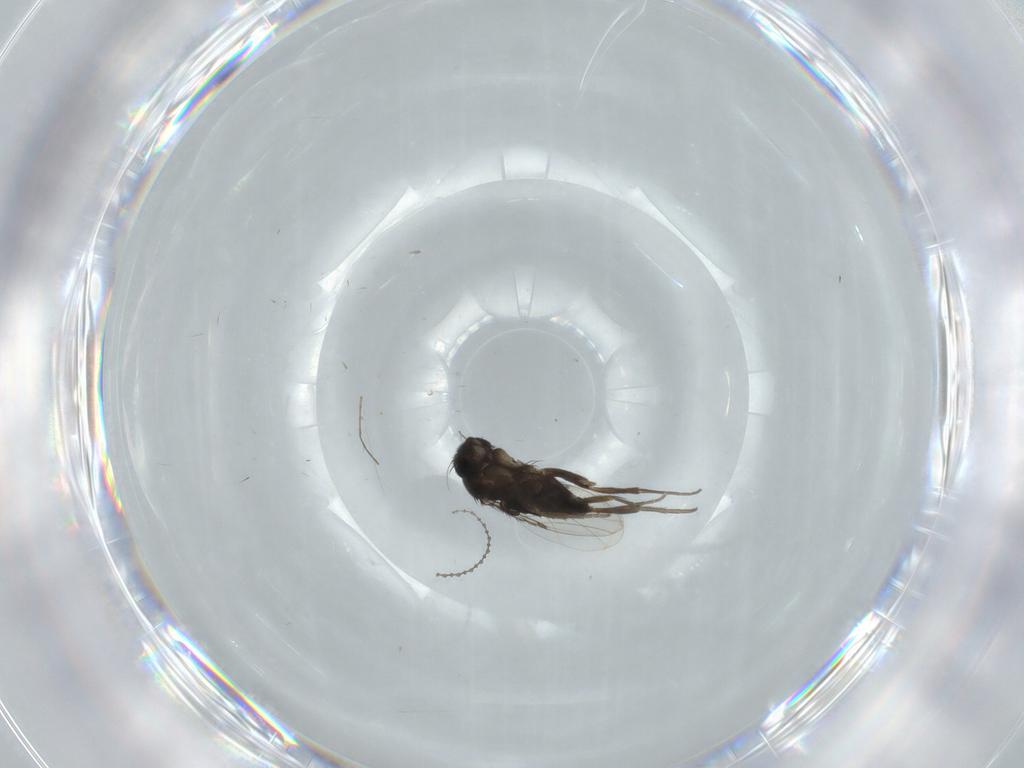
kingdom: Animalia
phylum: Arthropoda
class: Insecta
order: Diptera
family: Phoridae
